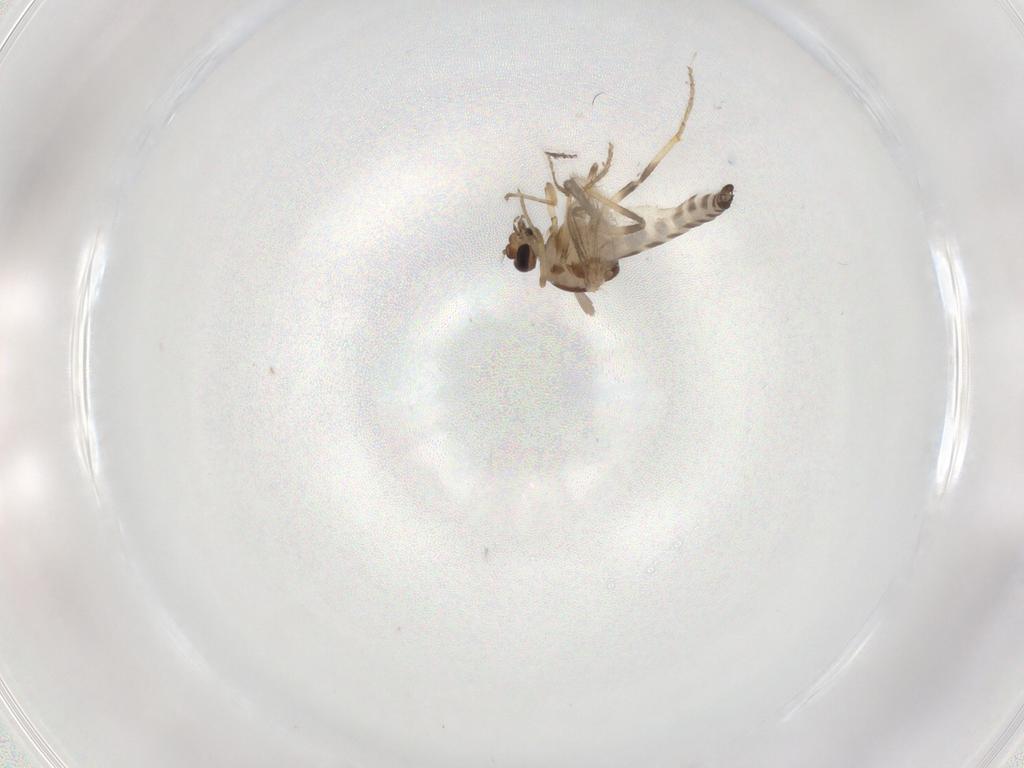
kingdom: Animalia
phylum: Arthropoda
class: Insecta
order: Diptera
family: Ceratopogonidae
